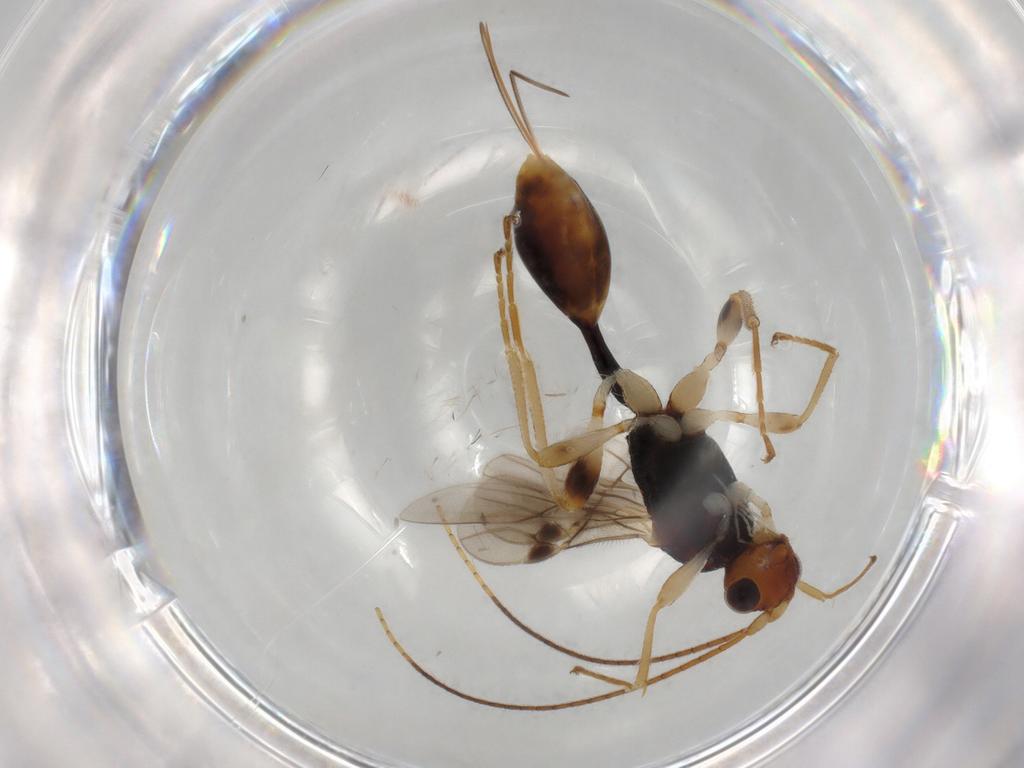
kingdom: Animalia
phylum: Arthropoda
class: Insecta
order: Hymenoptera
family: Braconidae
